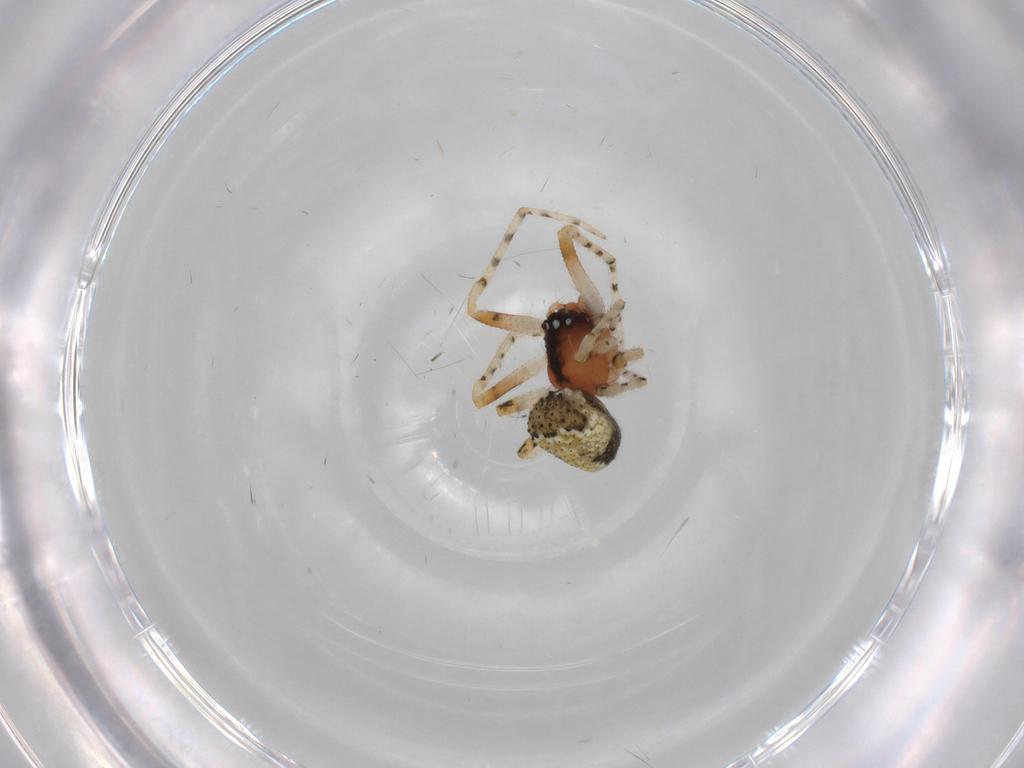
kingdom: Animalia
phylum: Arthropoda
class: Arachnida
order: Araneae
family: Theridiidae
